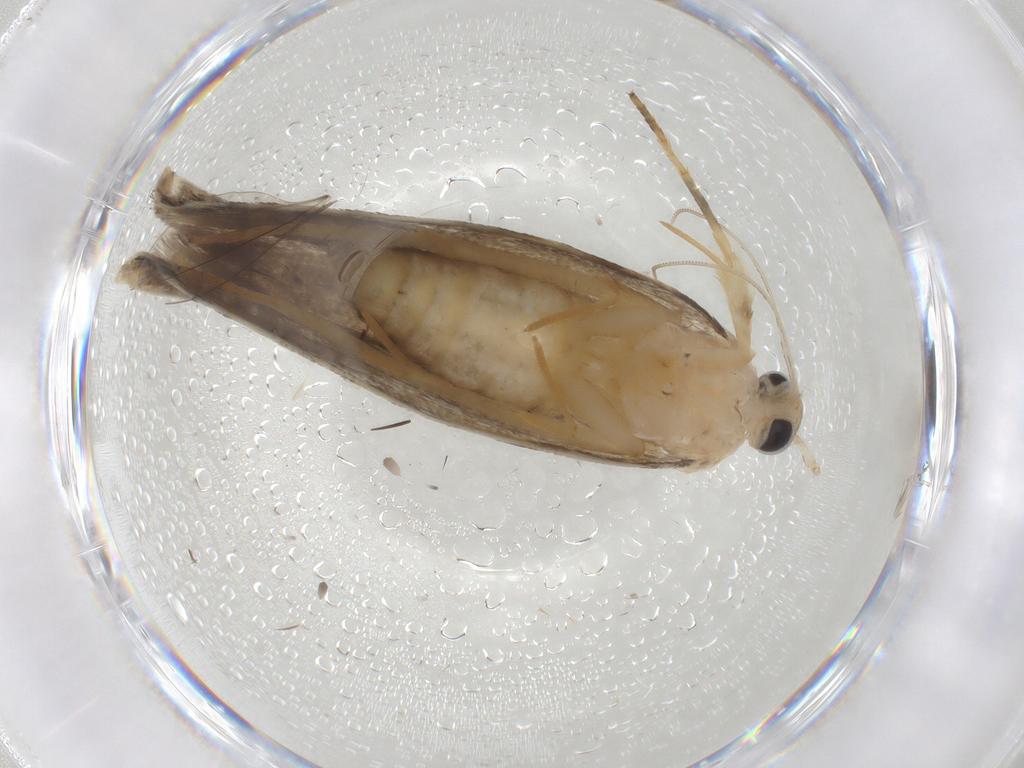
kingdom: Animalia
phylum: Arthropoda
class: Insecta
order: Lepidoptera
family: Gelechiidae
